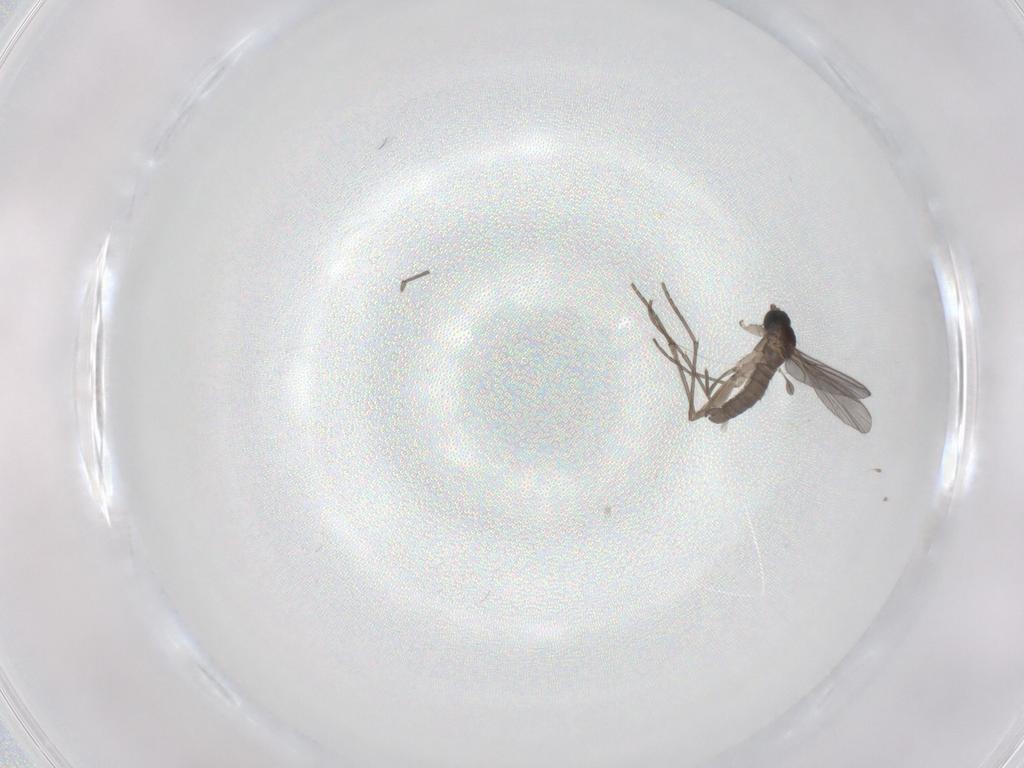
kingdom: Animalia
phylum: Arthropoda
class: Insecta
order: Diptera
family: Sciaridae
